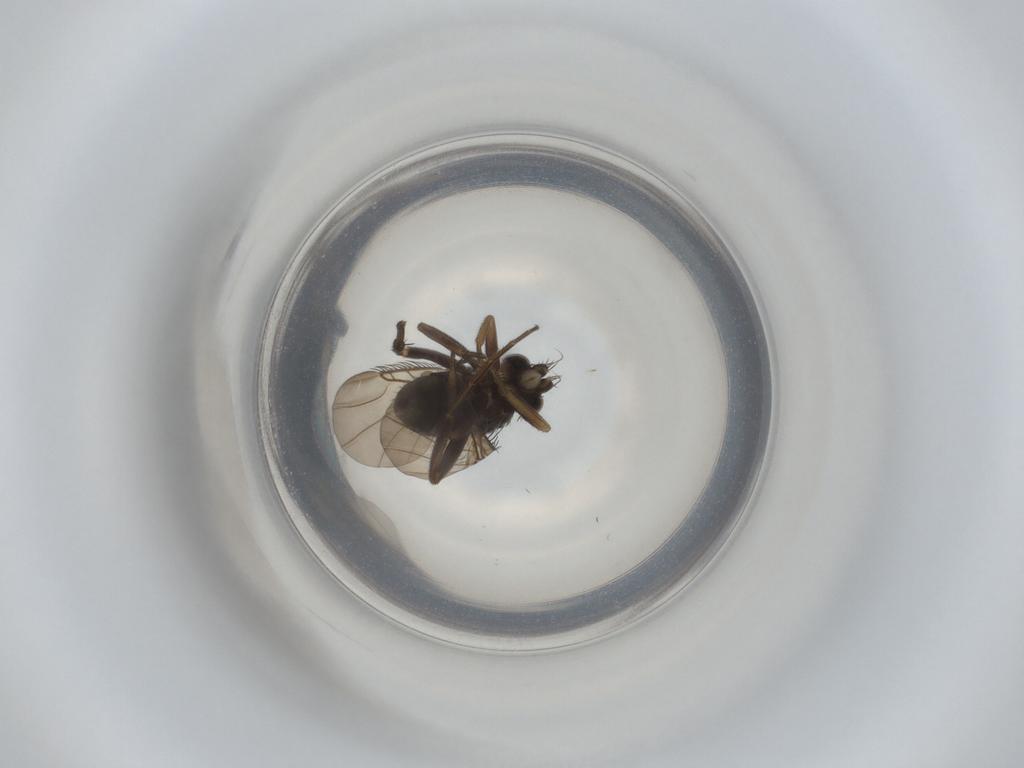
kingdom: Animalia
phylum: Arthropoda
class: Insecta
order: Diptera
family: Phoridae
